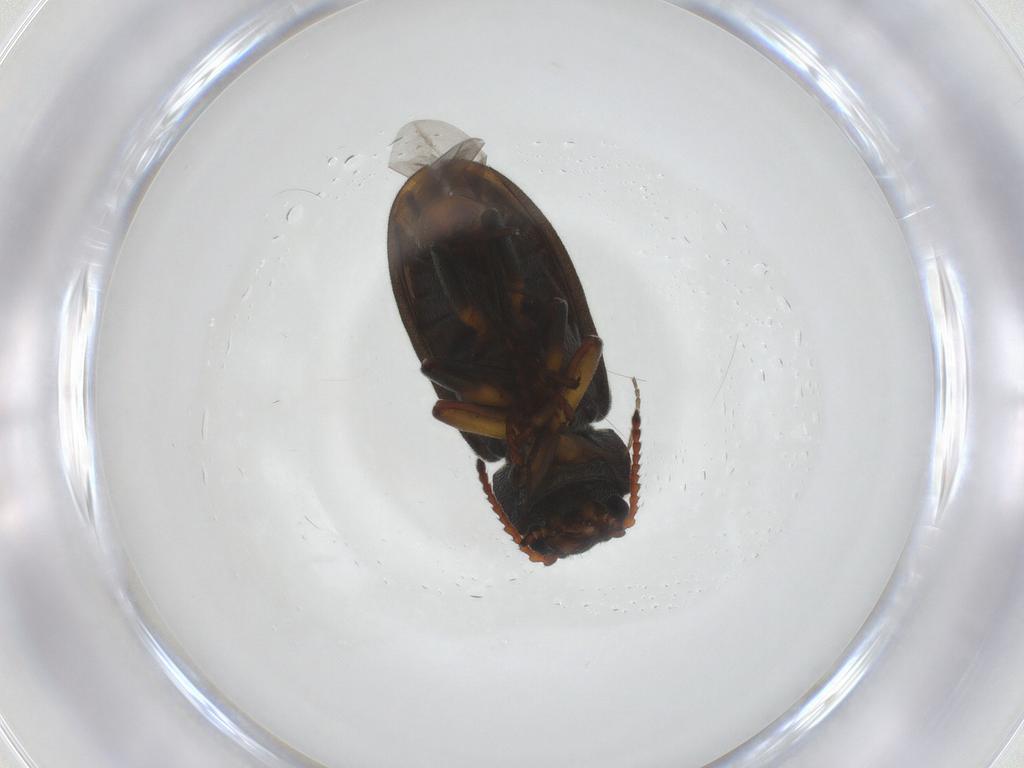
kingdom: Animalia
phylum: Arthropoda
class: Insecta
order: Coleoptera
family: Melyridae
